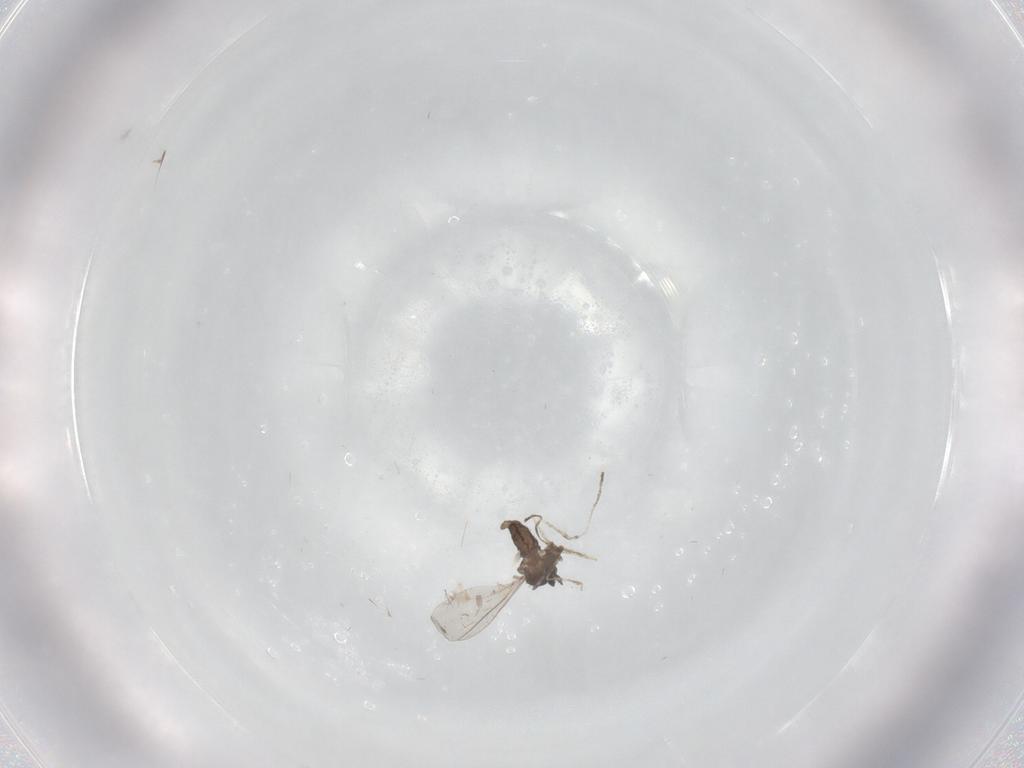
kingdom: Animalia
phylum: Arthropoda
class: Insecta
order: Diptera
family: Cecidomyiidae
